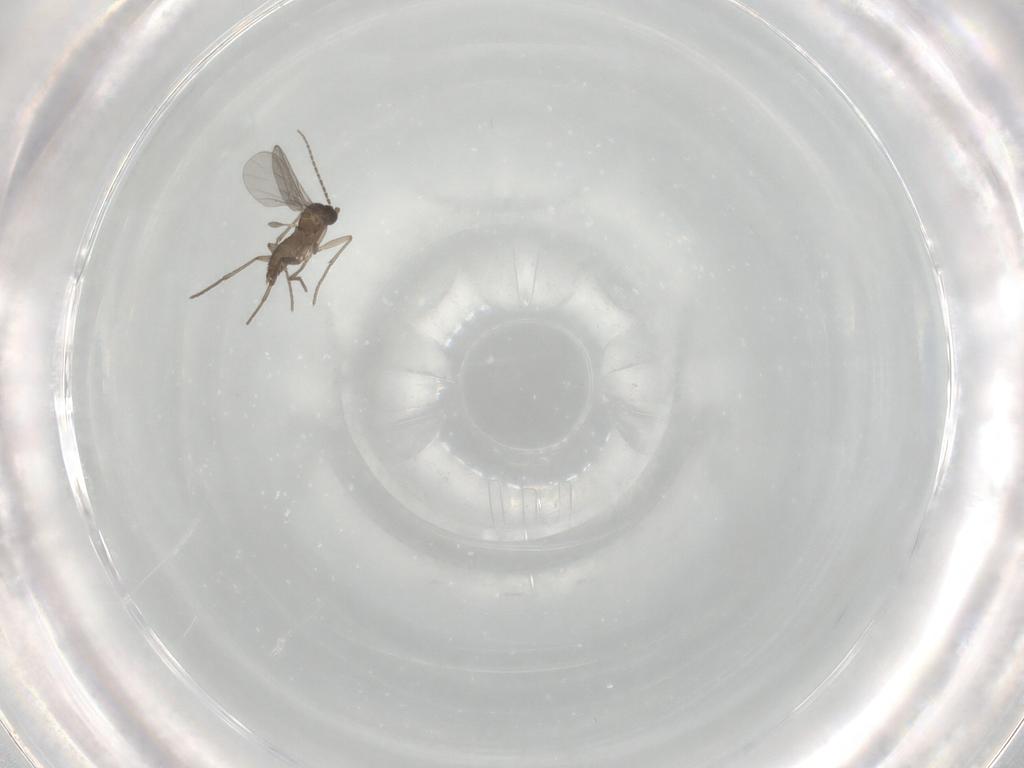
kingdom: Animalia
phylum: Arthropoda
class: Insecta
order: Diptera
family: Sciaridae
